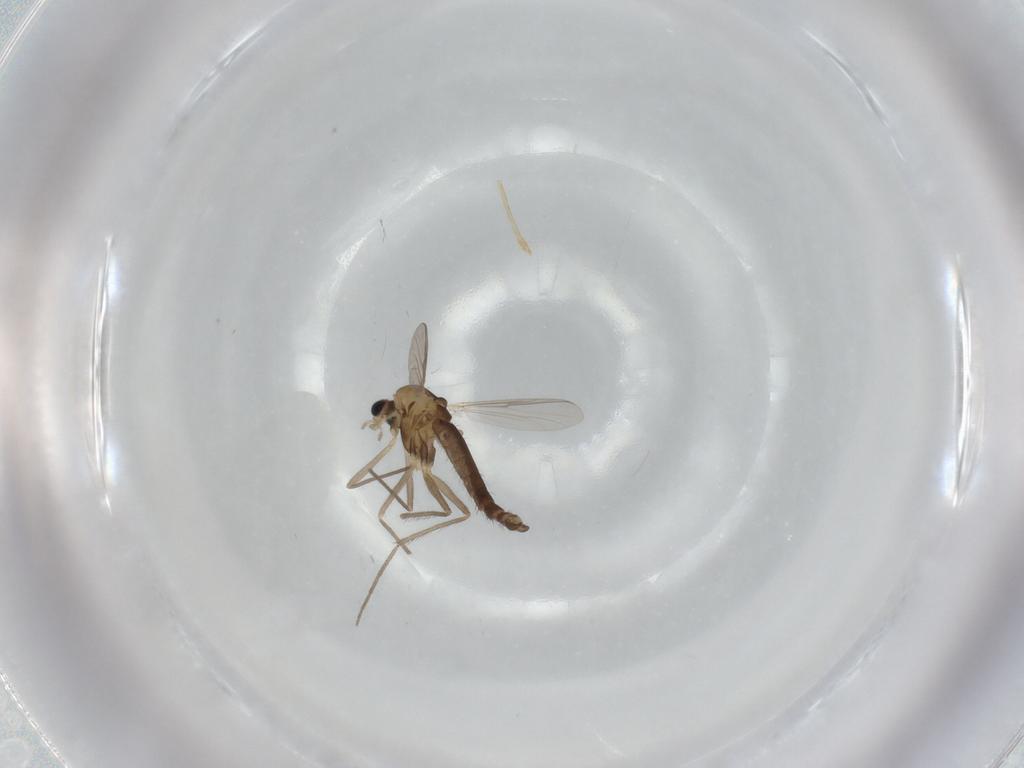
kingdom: Animalia
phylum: Arthropoda
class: Insecta
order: Diptera
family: Chironomidae
